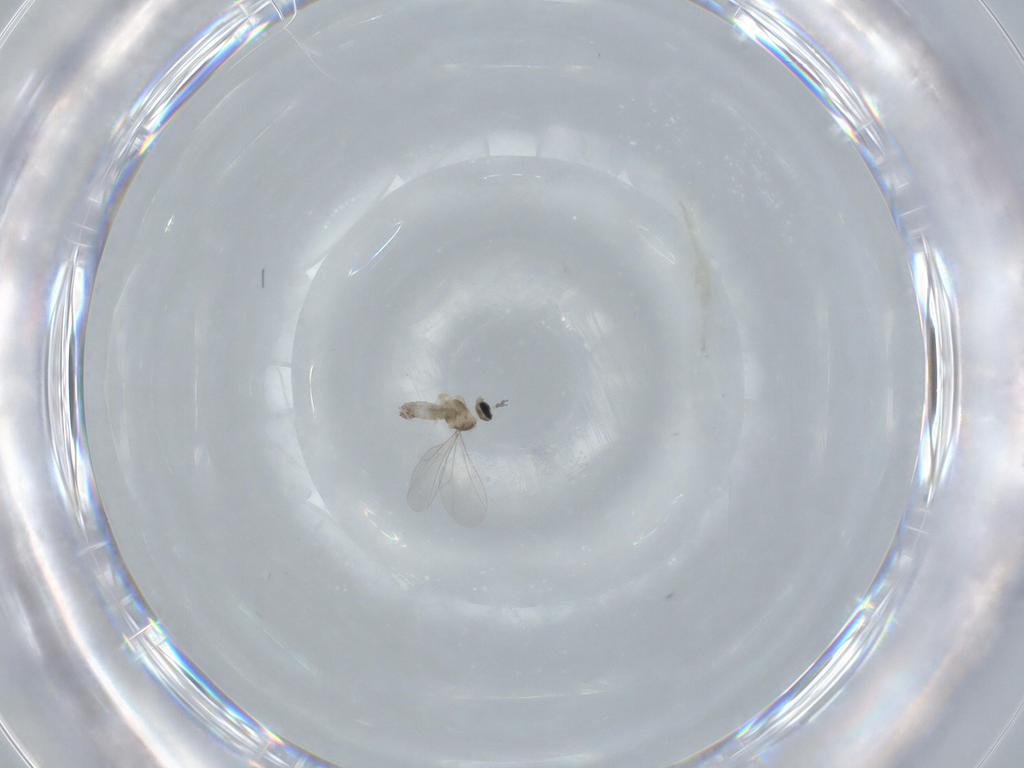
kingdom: Animalia
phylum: Arthropoda
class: Insecta
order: Diptera
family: Cecidomyiidae
